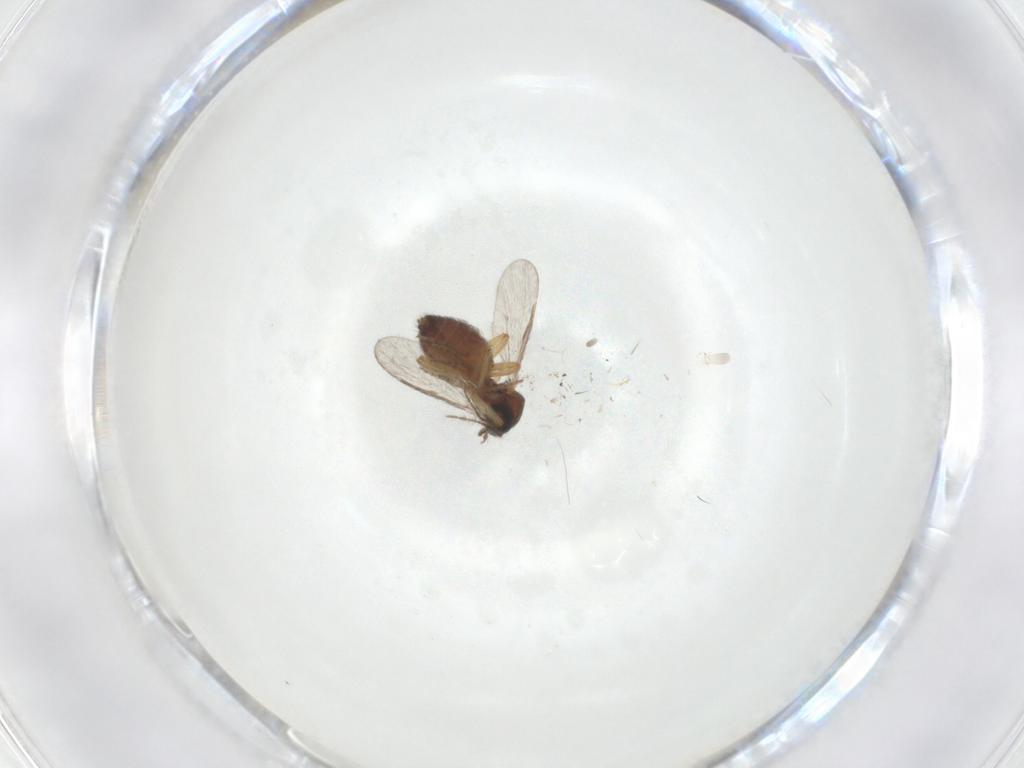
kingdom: Animalia
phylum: Arthropoda
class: Insecta
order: Diptera
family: Ceratopogonidae
